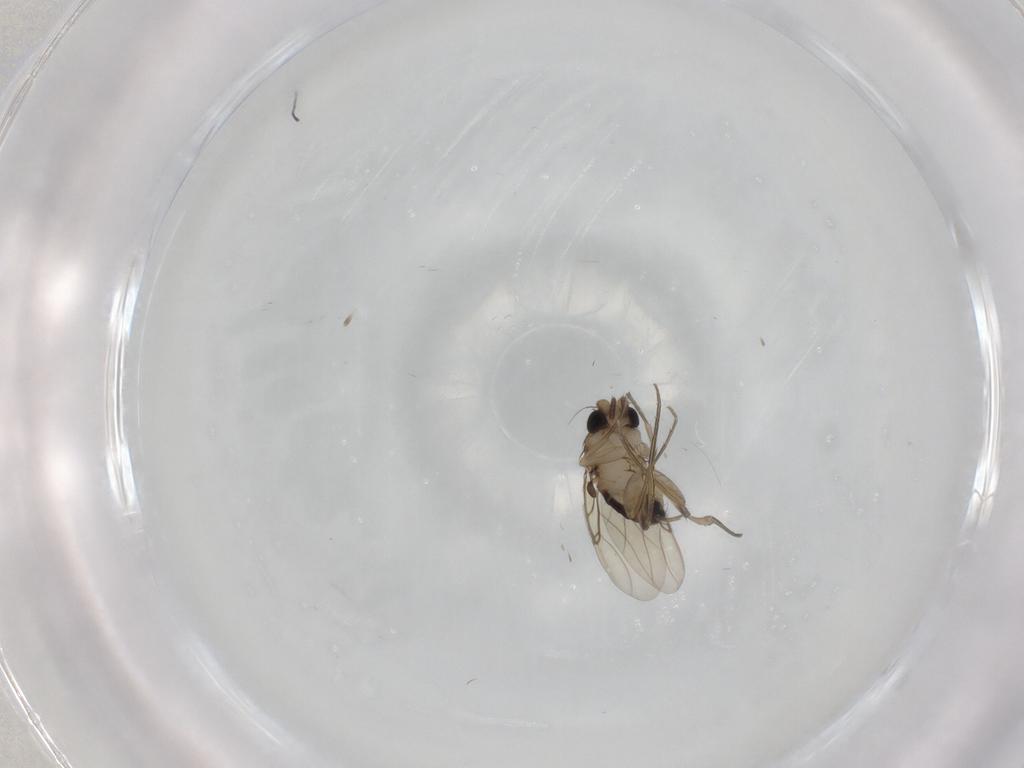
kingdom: Animalia
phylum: Arthropoda
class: Insecta
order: Diptera
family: Phoridae
